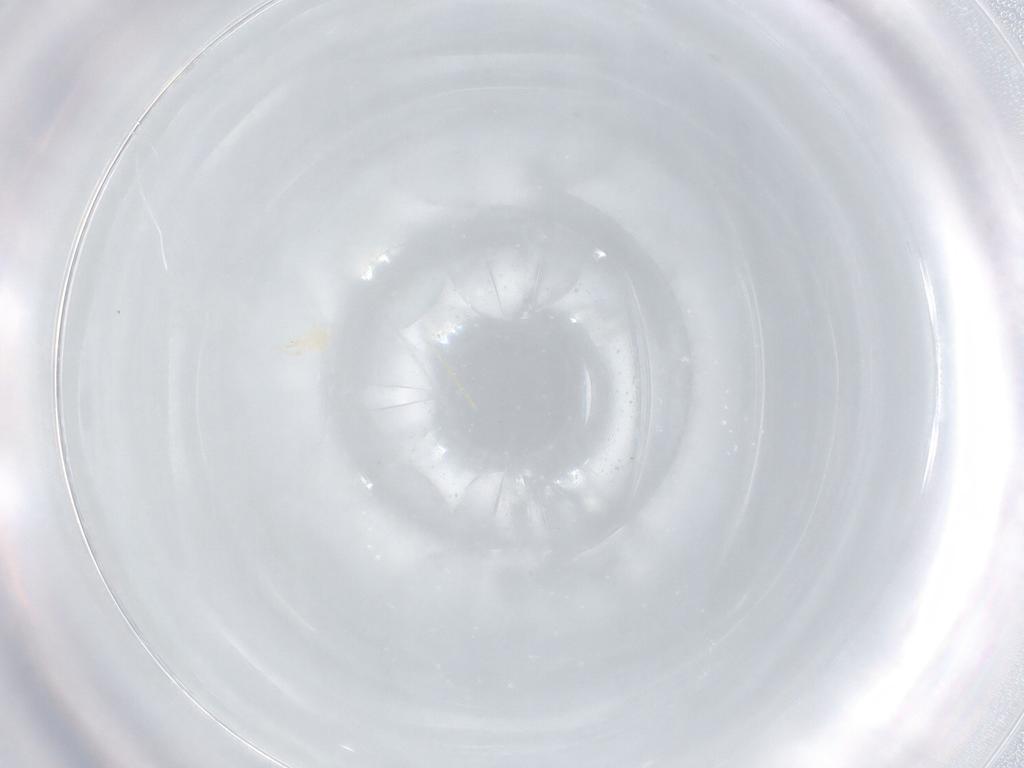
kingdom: Animalia
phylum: Arthropoda
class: Arachnida
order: Mesostigmata
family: Phytoseiidae
